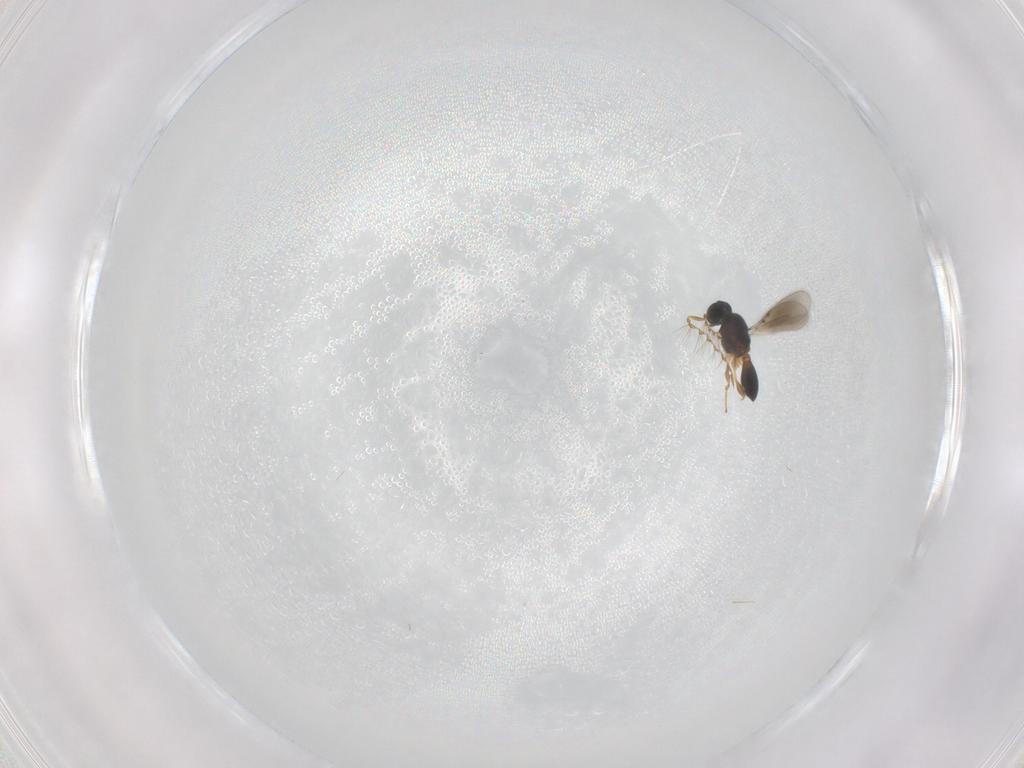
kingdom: Animalia
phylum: Arthropoda
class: Insecta
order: Hymenoptera
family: Platygastridae
